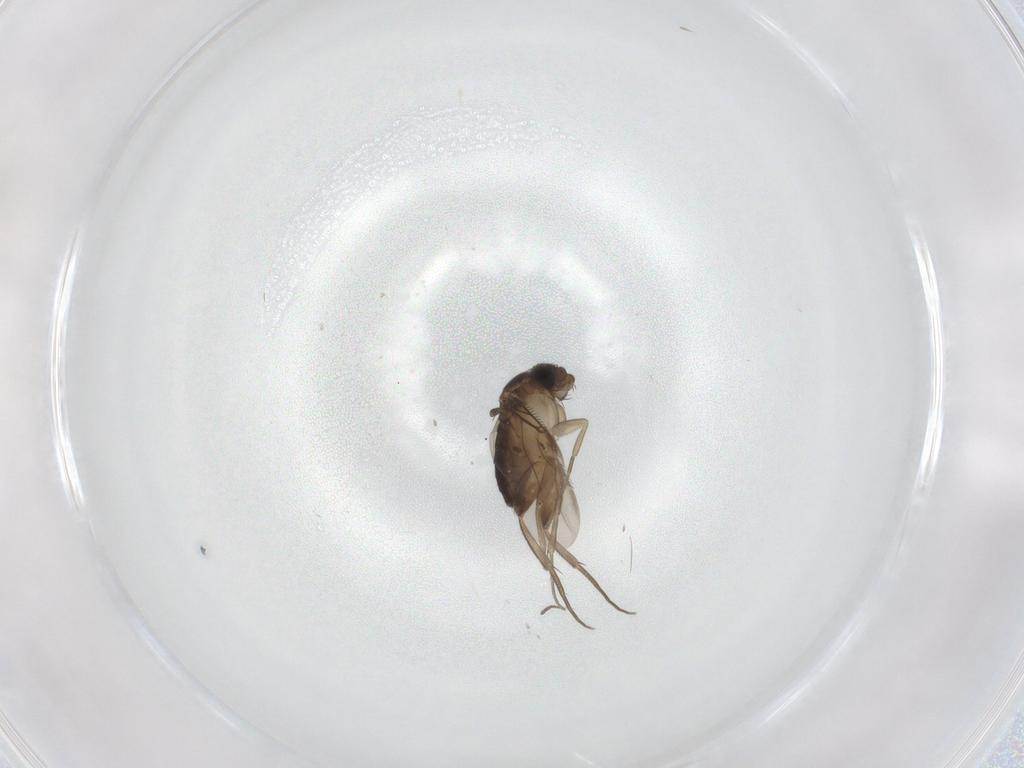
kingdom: Animalia
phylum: Arthropoda
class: Insecta
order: Diptera
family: Phoridae
